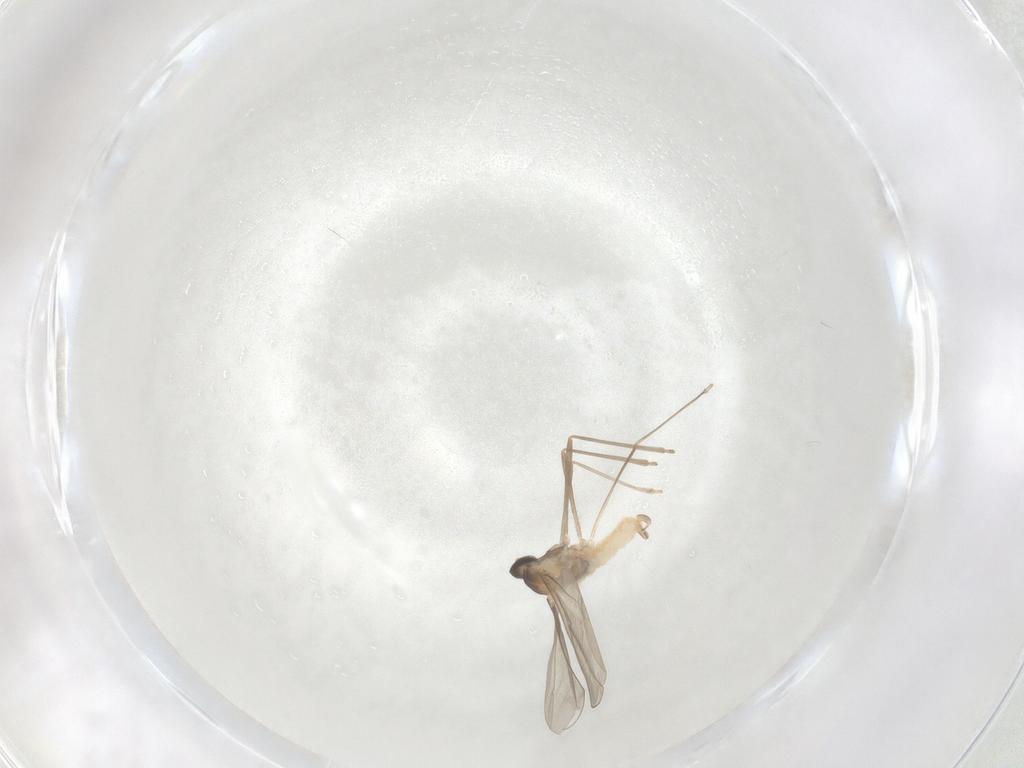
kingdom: Animalia
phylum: Arthropoda
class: Insecta
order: Diptera
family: Cecidomyiidae
